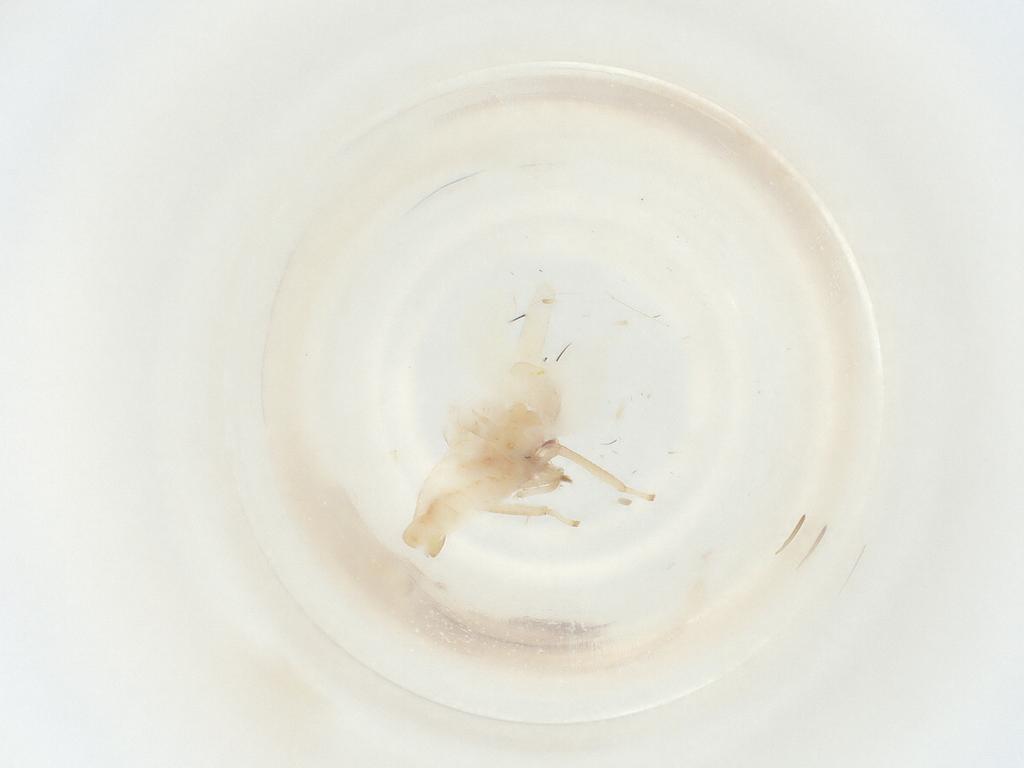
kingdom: Animalia
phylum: Arthropoda
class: Insecta
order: Hemiptera
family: Cicadellidae
